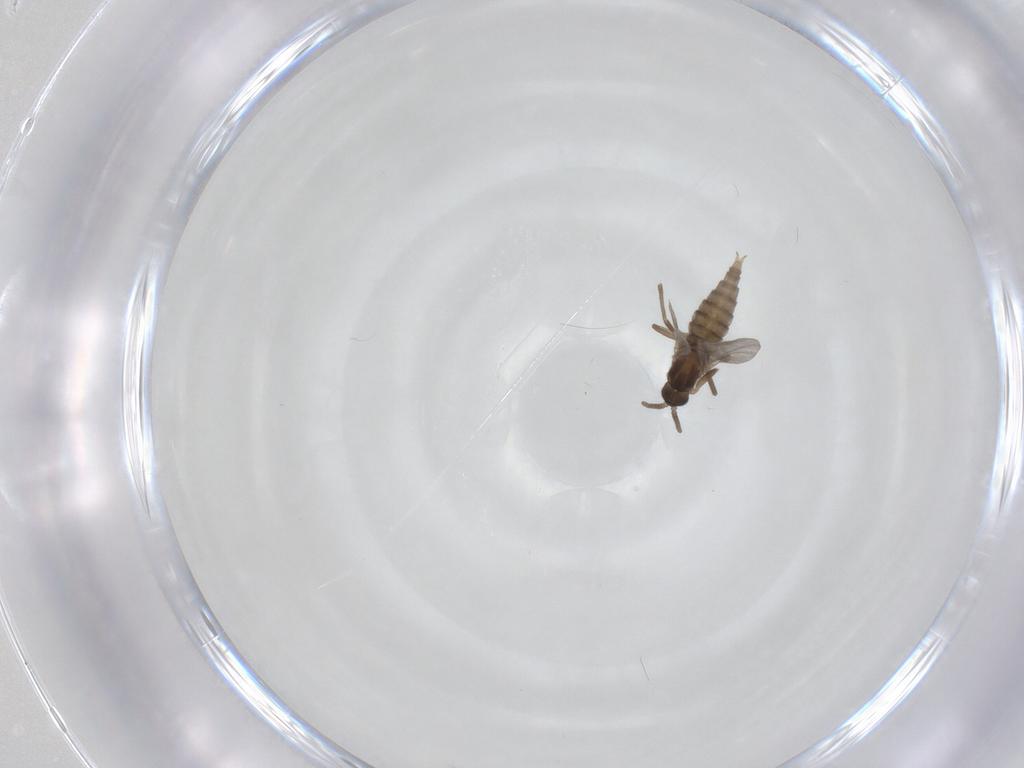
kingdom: Animalia
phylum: Arthropoda
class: Insecta
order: Diptera
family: Cecidomyiidae
